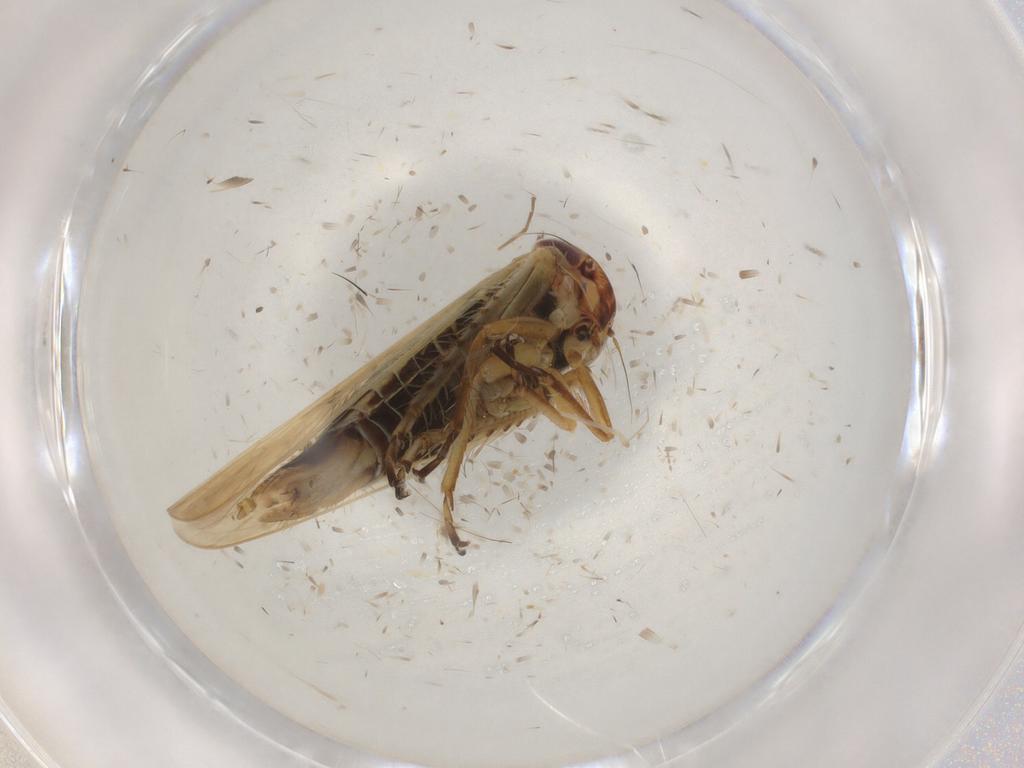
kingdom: Animalia
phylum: Arthropoda
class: Insecta
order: Hemiptera
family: Cicadellidae
